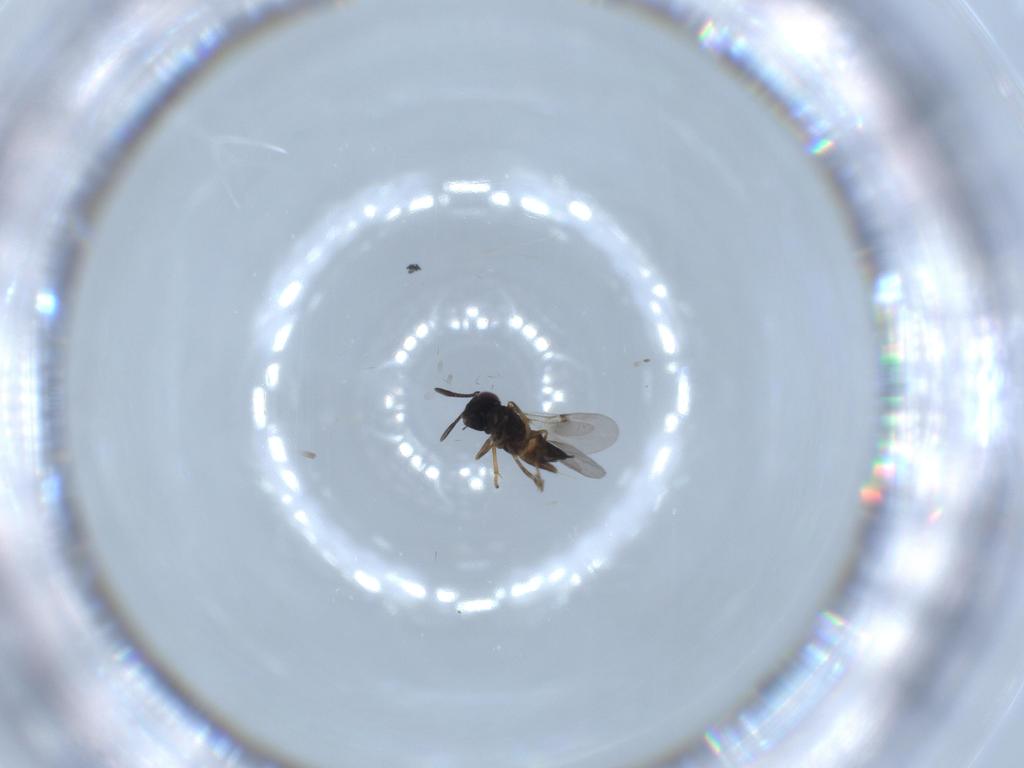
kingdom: Animalia
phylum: Arthropoda
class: Insecta
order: Hymenoptera
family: Encyrtidae
